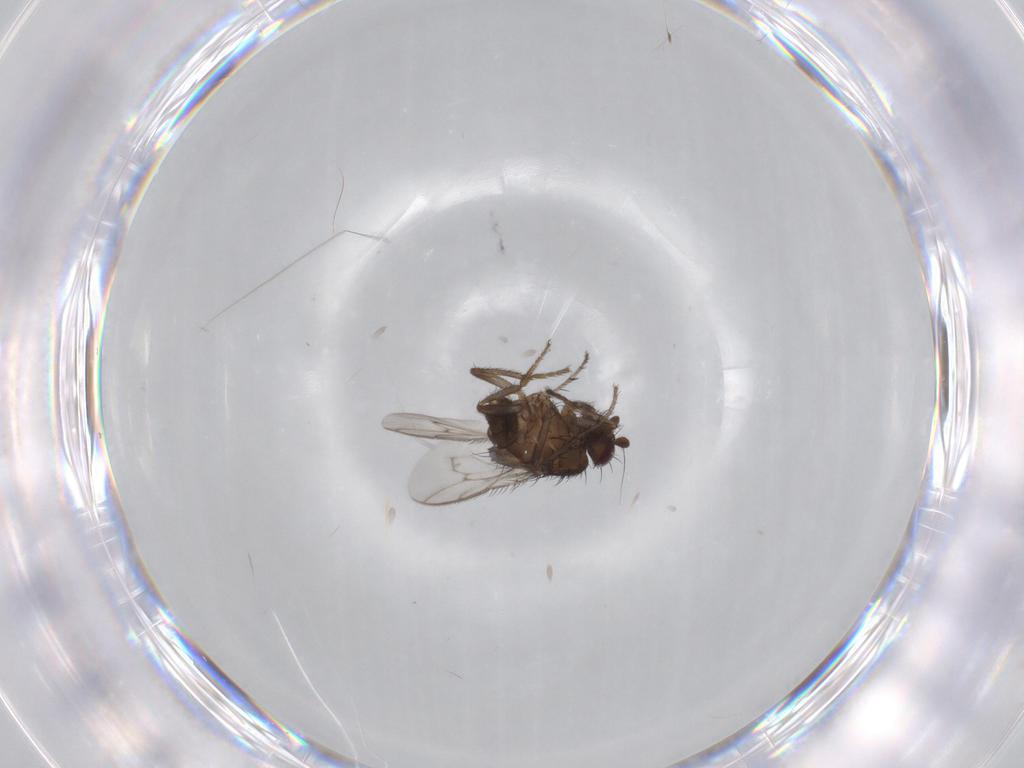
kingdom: Animalia
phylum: Arthropoda
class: Insecta
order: Diptera
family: Sphaeroceridae
